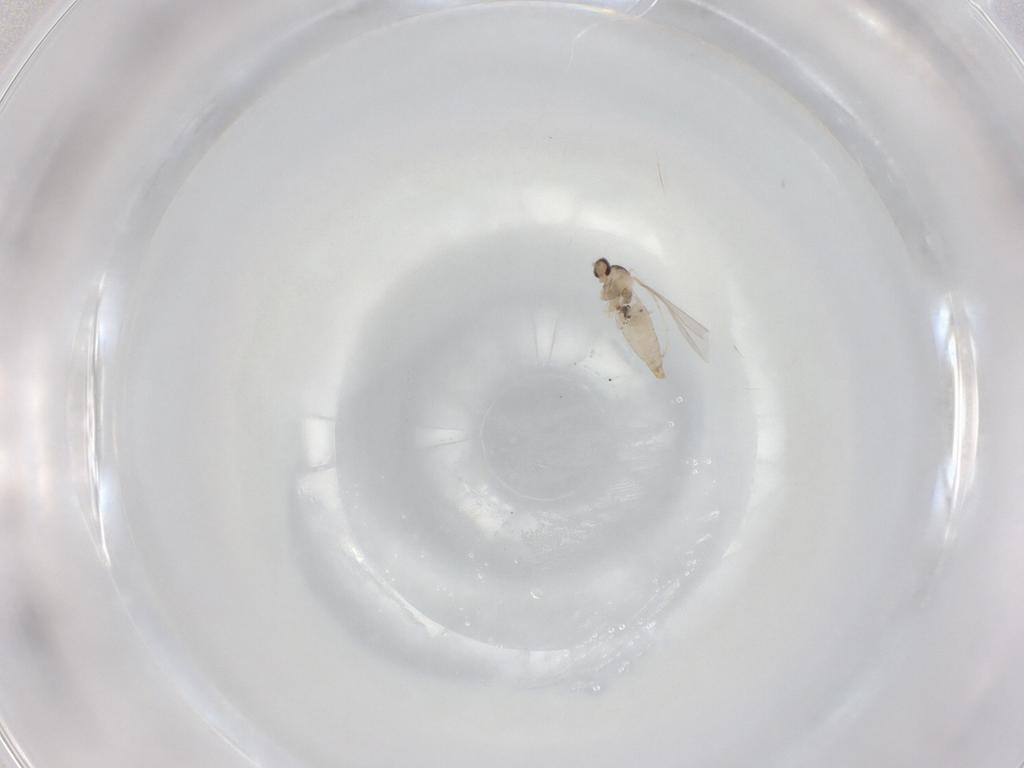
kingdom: Animalia
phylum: Arthropoda
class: Insecta
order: Diptera
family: Cecidomyiidae
